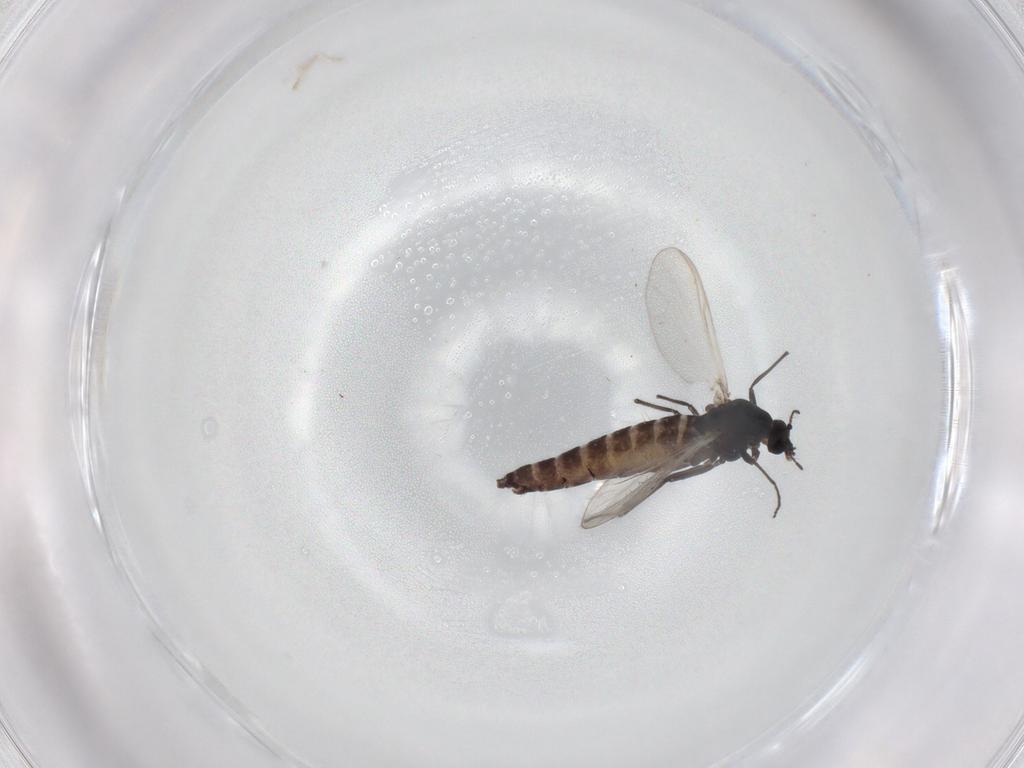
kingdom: Animalia
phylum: Arthropoda
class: Insecta
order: Diptera
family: Chironomidae
